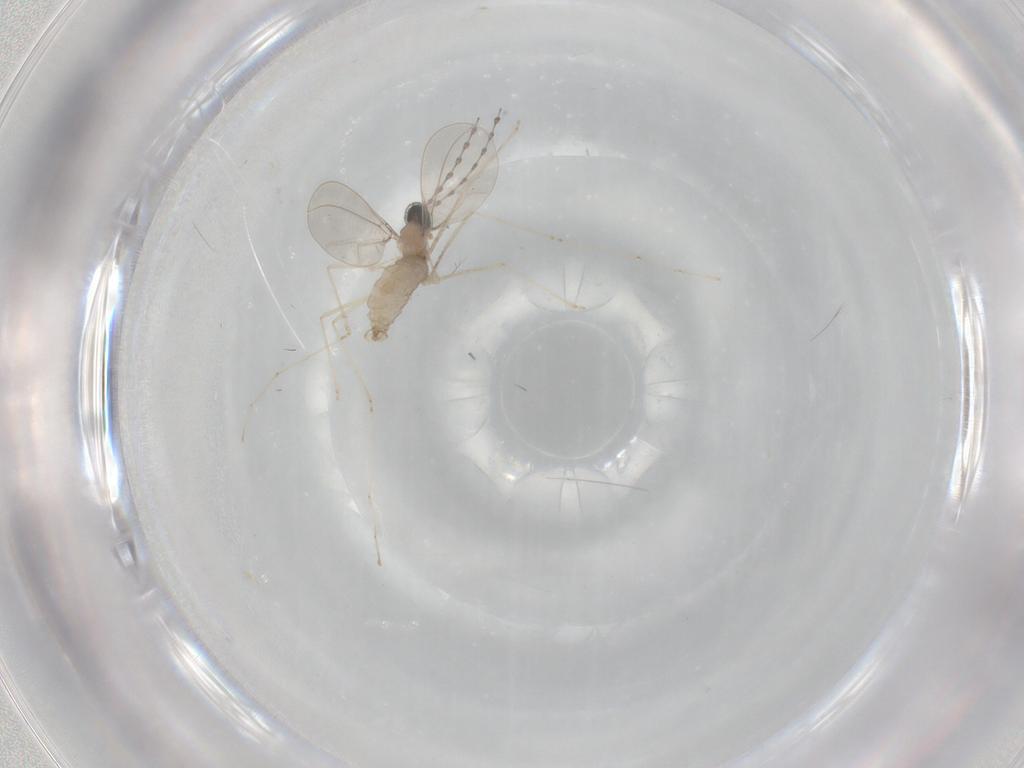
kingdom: Animalia
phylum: Arthropoda
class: Insecta
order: Diptera
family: Cecidomyiidae
